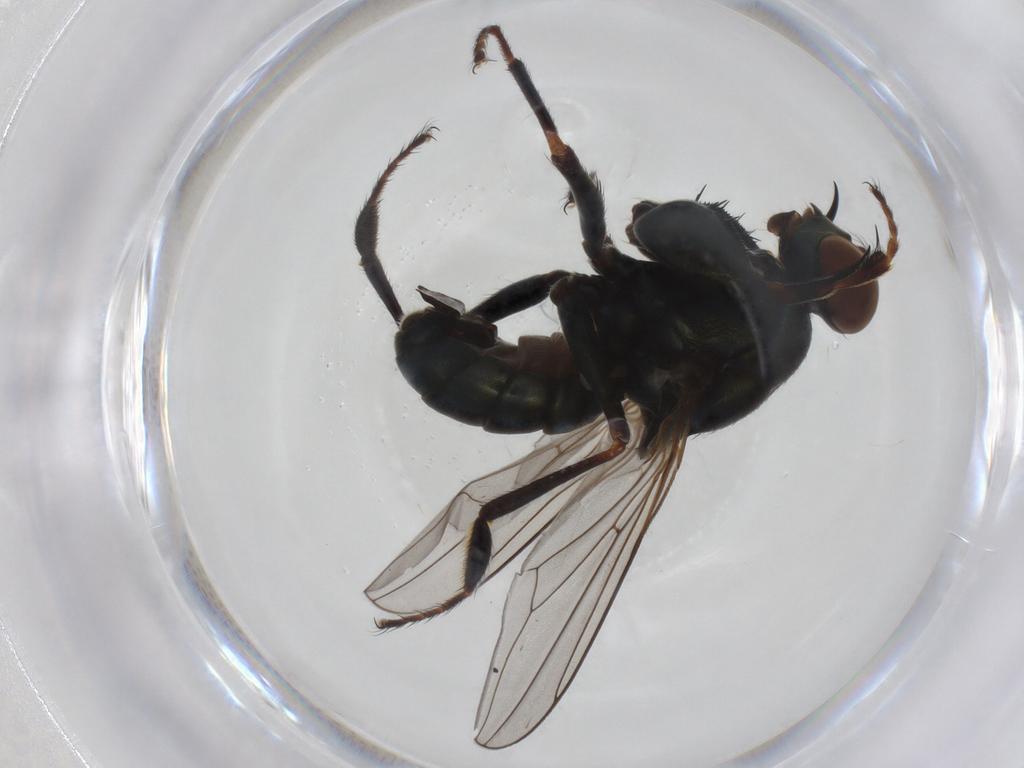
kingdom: Animalia
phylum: Arthropoda
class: Insecta
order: Diptera
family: Ephydridae
